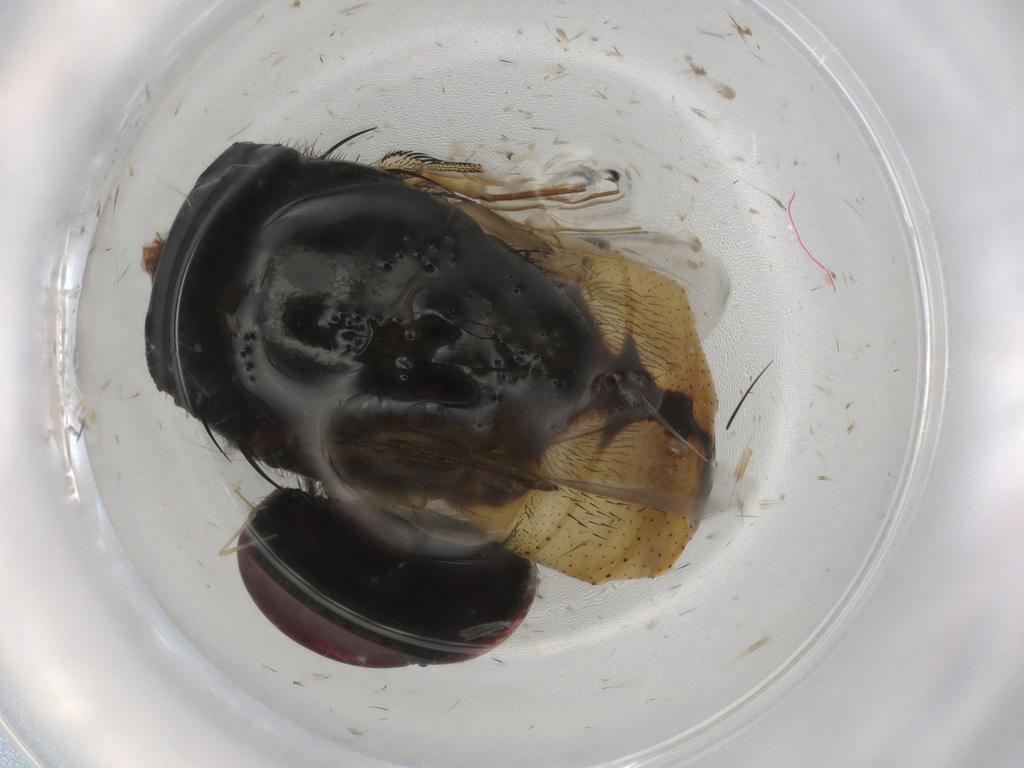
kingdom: Animalia
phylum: Arthropoda
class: Insecta
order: Diptera
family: Drosophilidae
